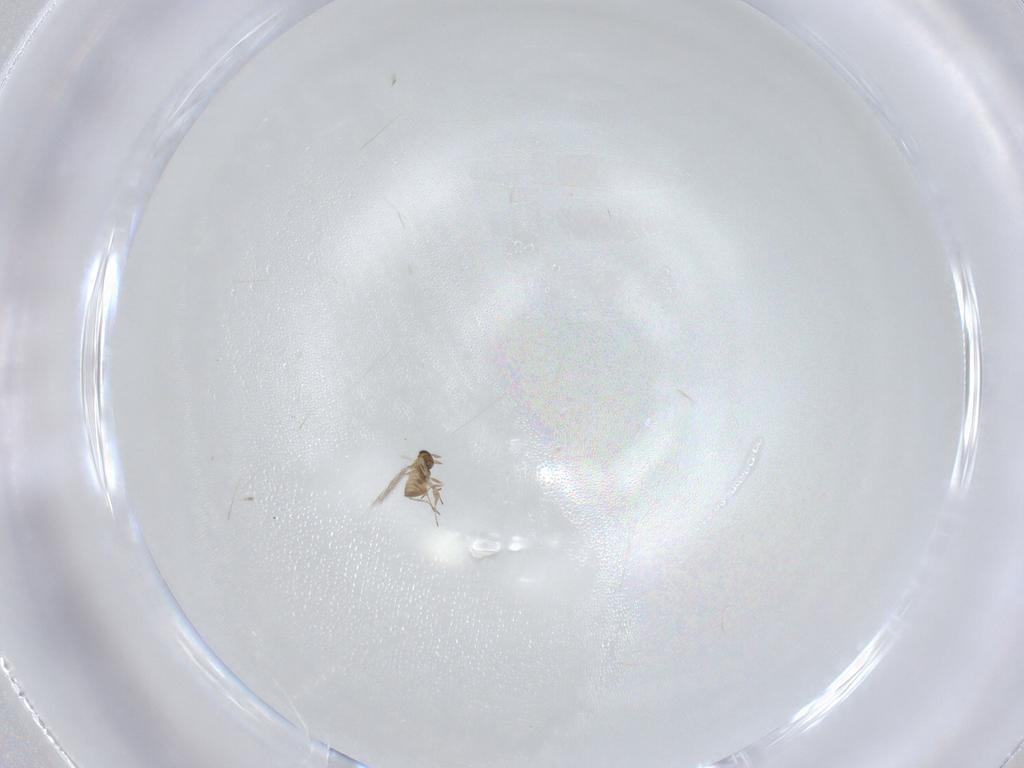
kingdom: Animalia
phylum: Arthropoda
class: Insecta
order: Hymenoptera
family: Trichogrammatidae
